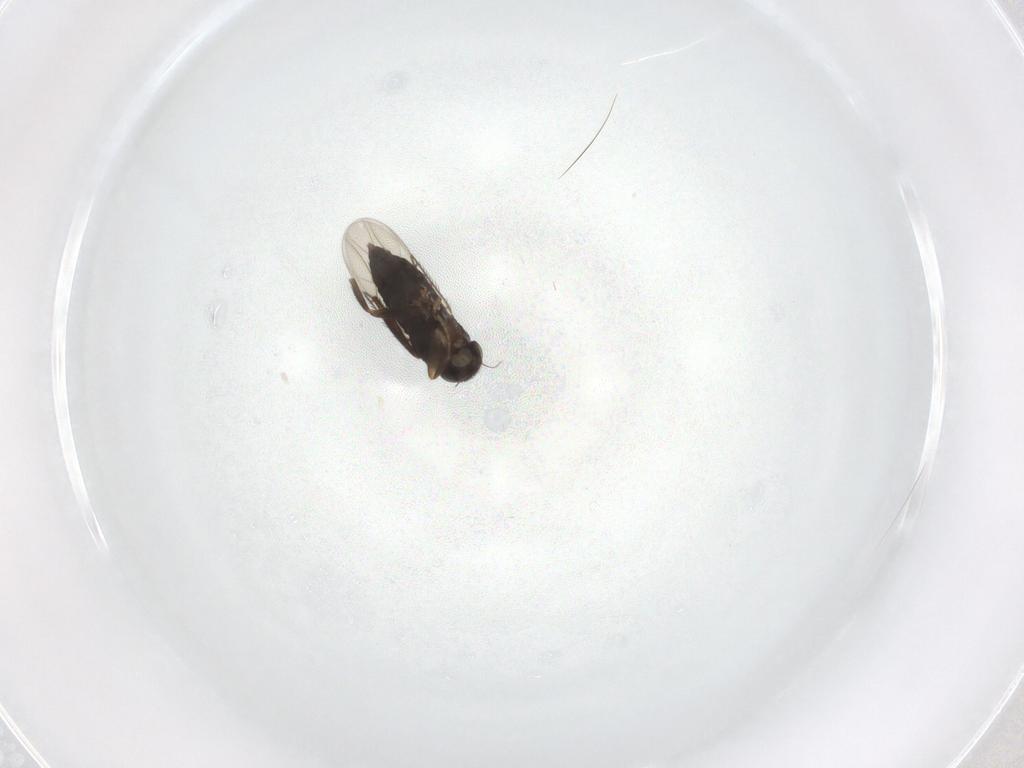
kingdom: Animalia
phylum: Arthropoda
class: Insecta
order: Diptera
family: Phoridae
